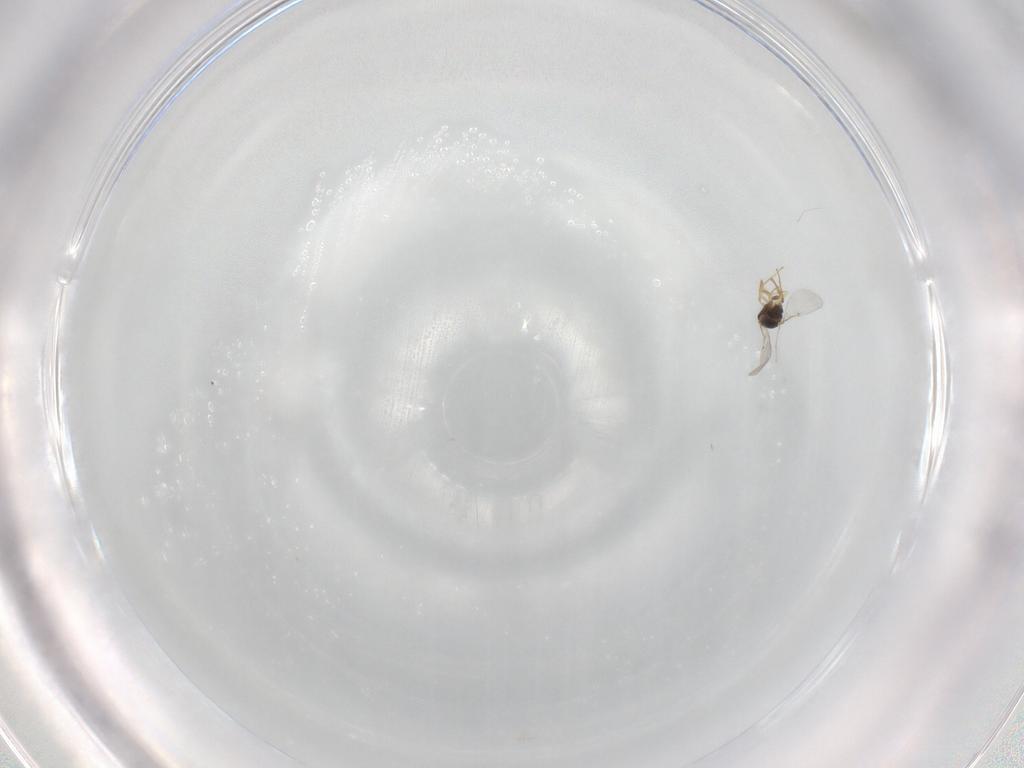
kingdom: Animalia
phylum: Arthropoda
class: Insecta
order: Hymenoptera
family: Encyrtidae
